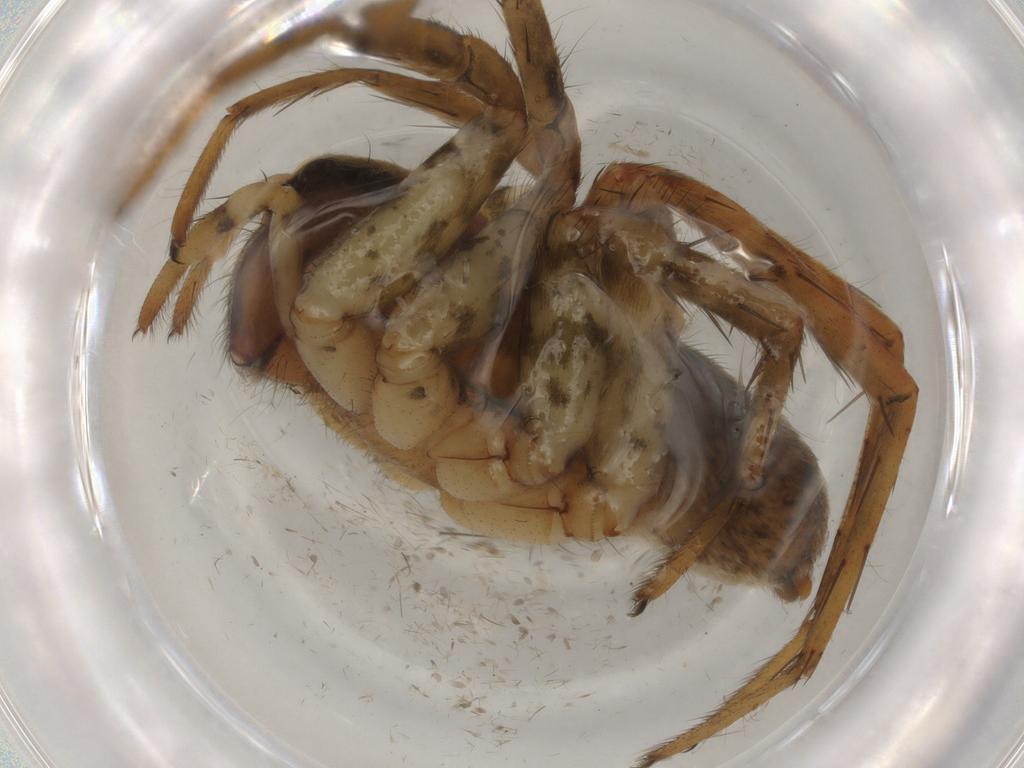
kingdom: Animalia
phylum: Arthropoda
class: Arachnida
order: Araneae
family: Lycosidae
